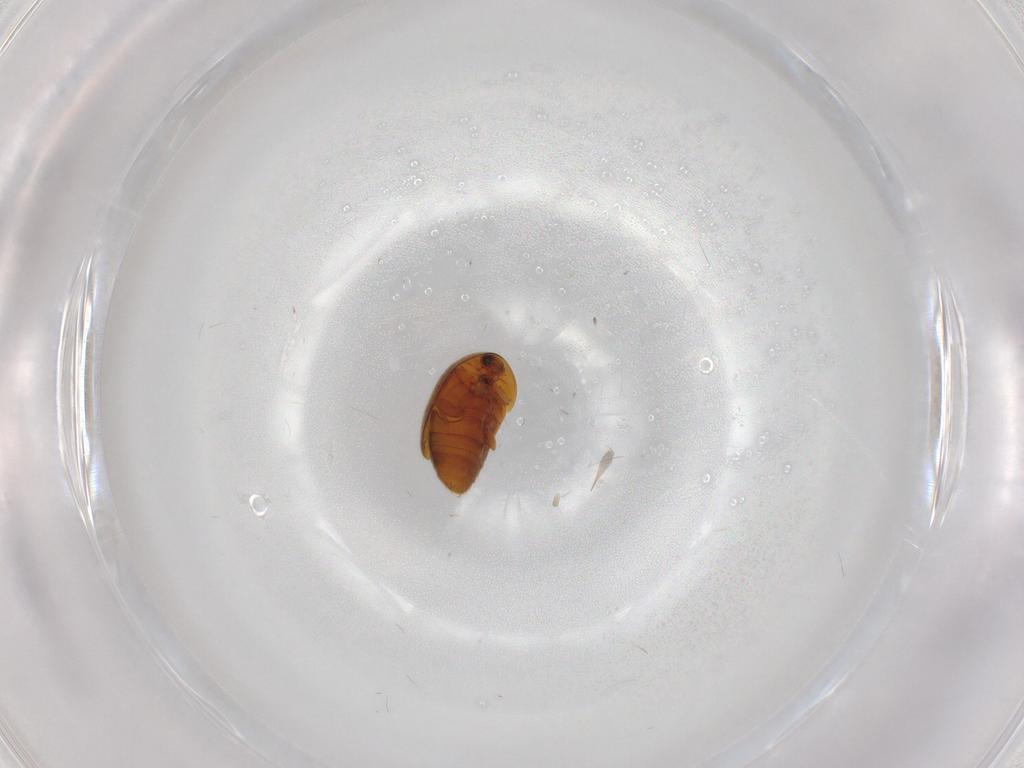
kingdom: Animalia
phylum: Arthropoda
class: Insecta
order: Coleoptera
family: Corylophidae
